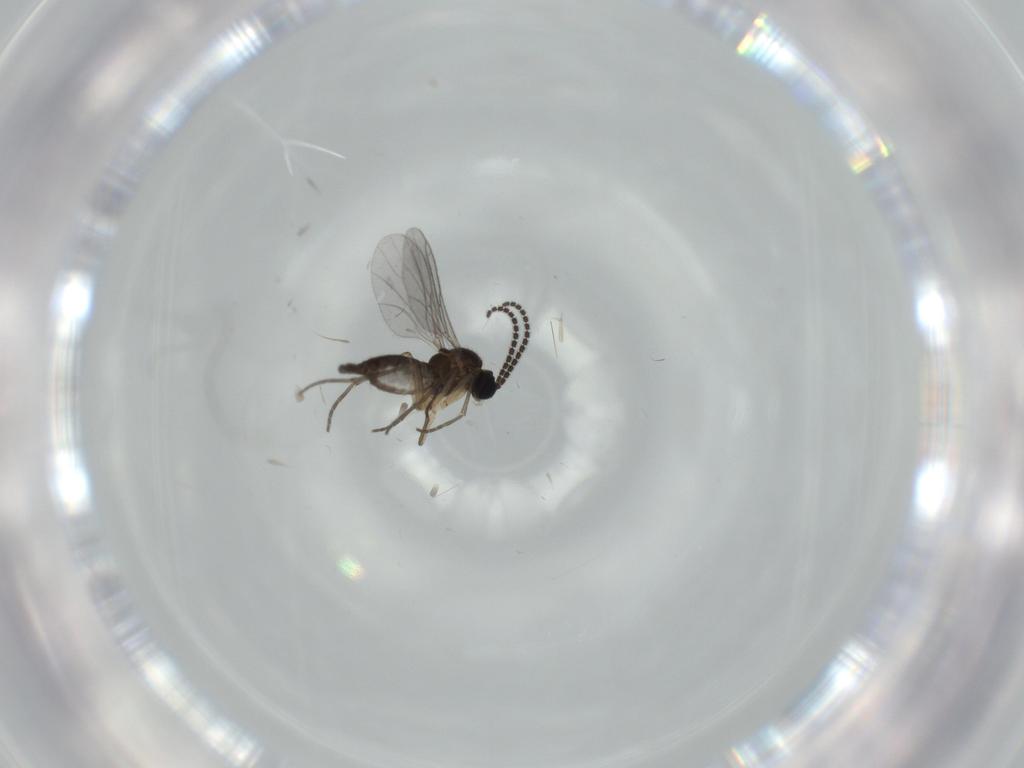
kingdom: Animalia
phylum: Arthropoda
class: Insecta
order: Diptera
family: Sciaridae
